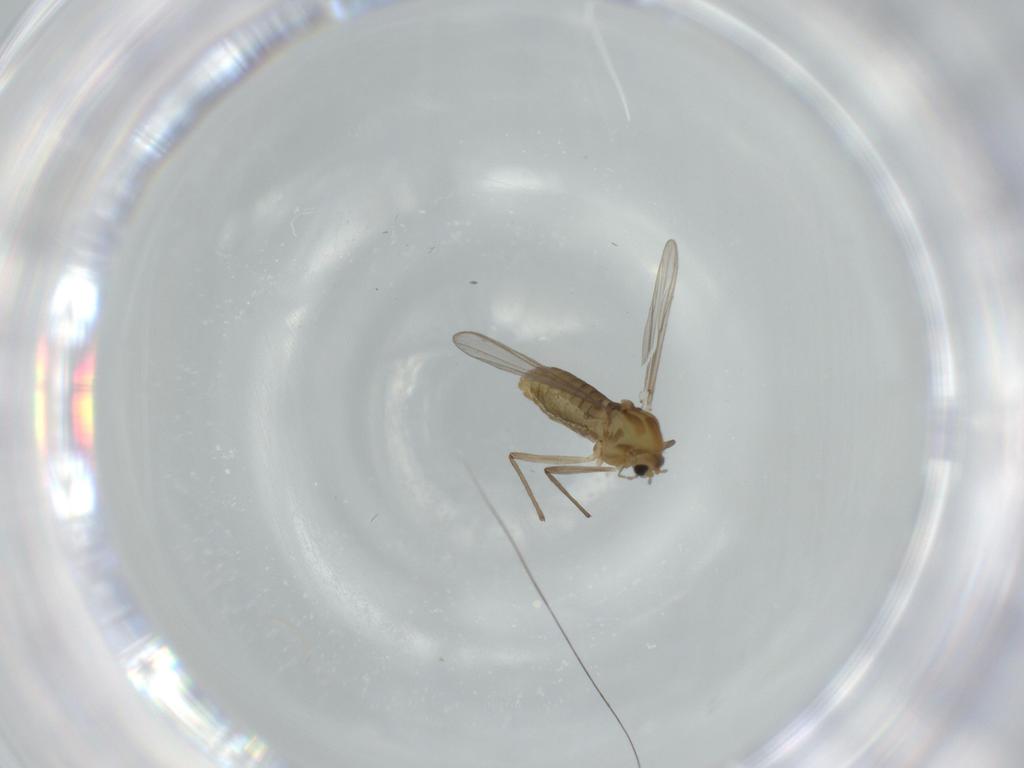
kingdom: Animalia
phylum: Arthropoda
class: Insecta
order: Diptera
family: Chironomidae
